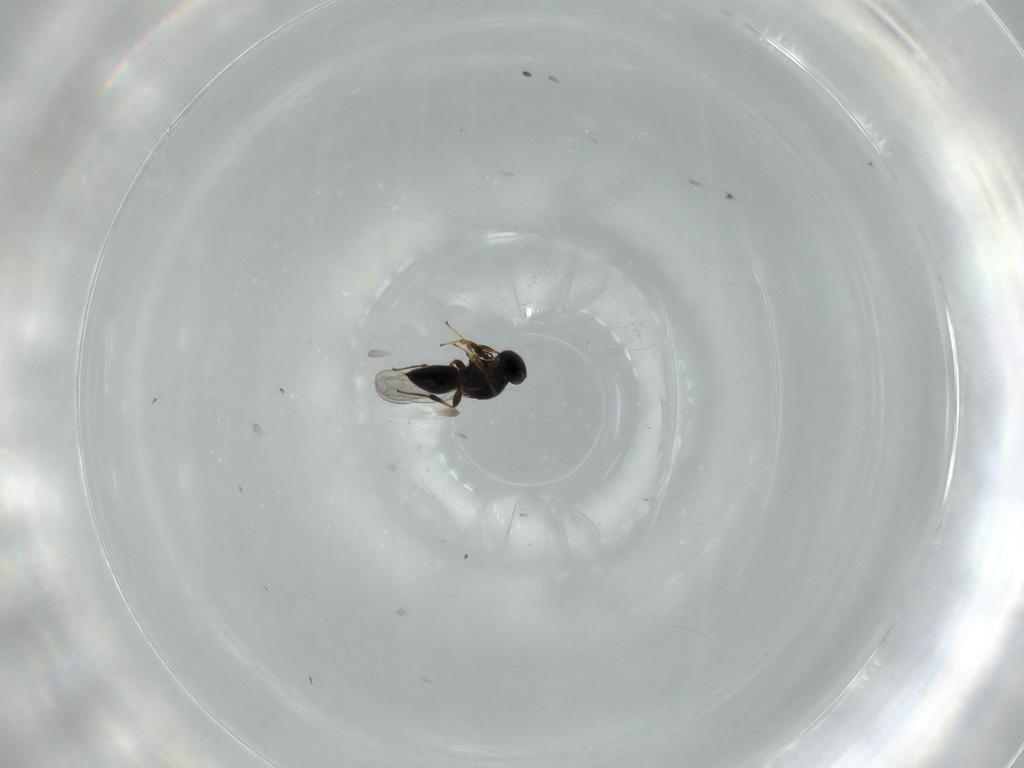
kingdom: Animalia
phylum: Arthropoda
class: Insecta
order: Hymenoptera
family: Platygastridae
